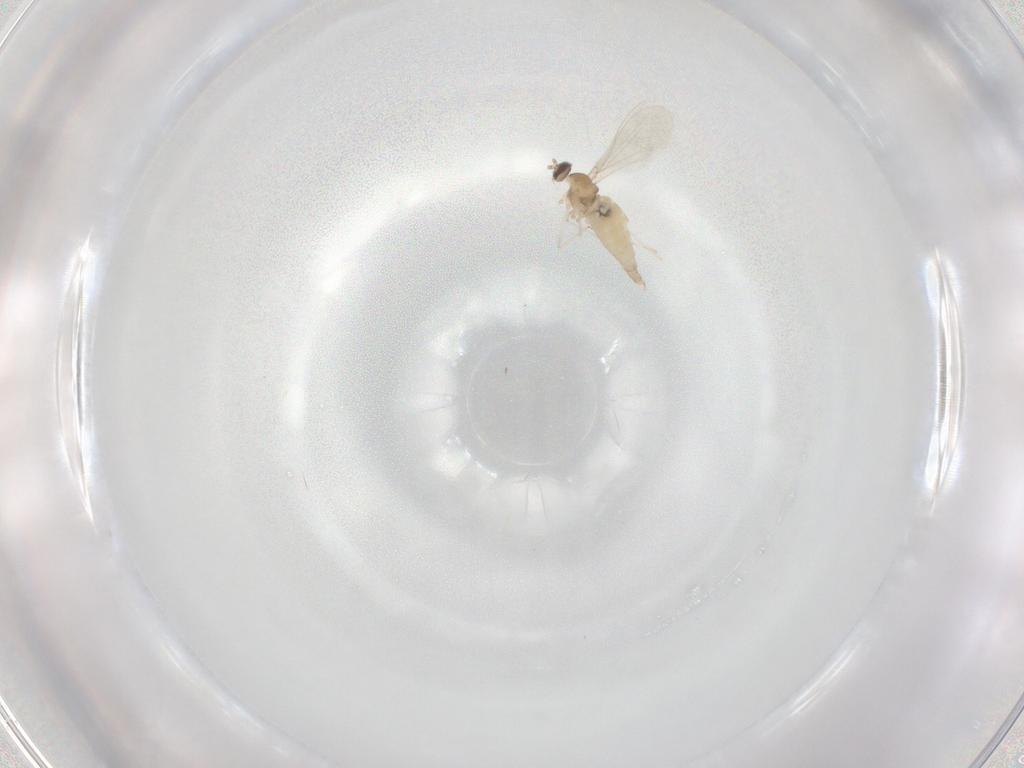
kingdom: Animalia
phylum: Arthropoda
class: Insecta
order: Diptera
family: Cecidomyiidae
